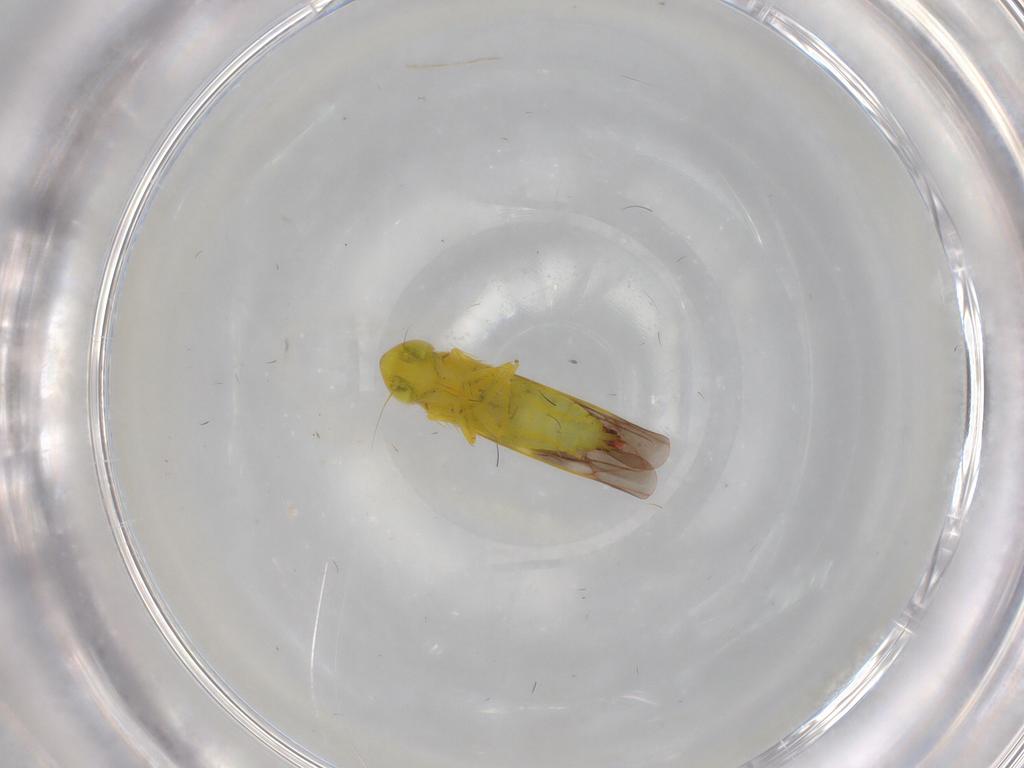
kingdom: Animalia
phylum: Arthropoda
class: Insecta
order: Hemiptera
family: Cicadellidae
